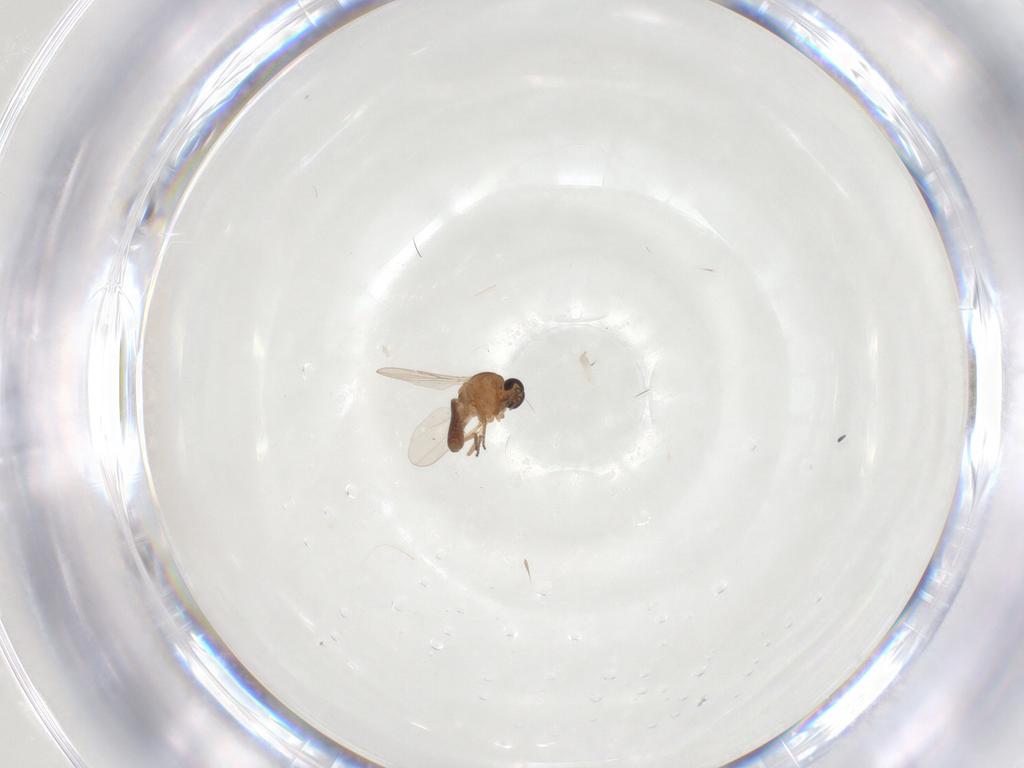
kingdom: Animalia
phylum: Arthropoda
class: Insecta
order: Diptera
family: Ceratopogonidae
